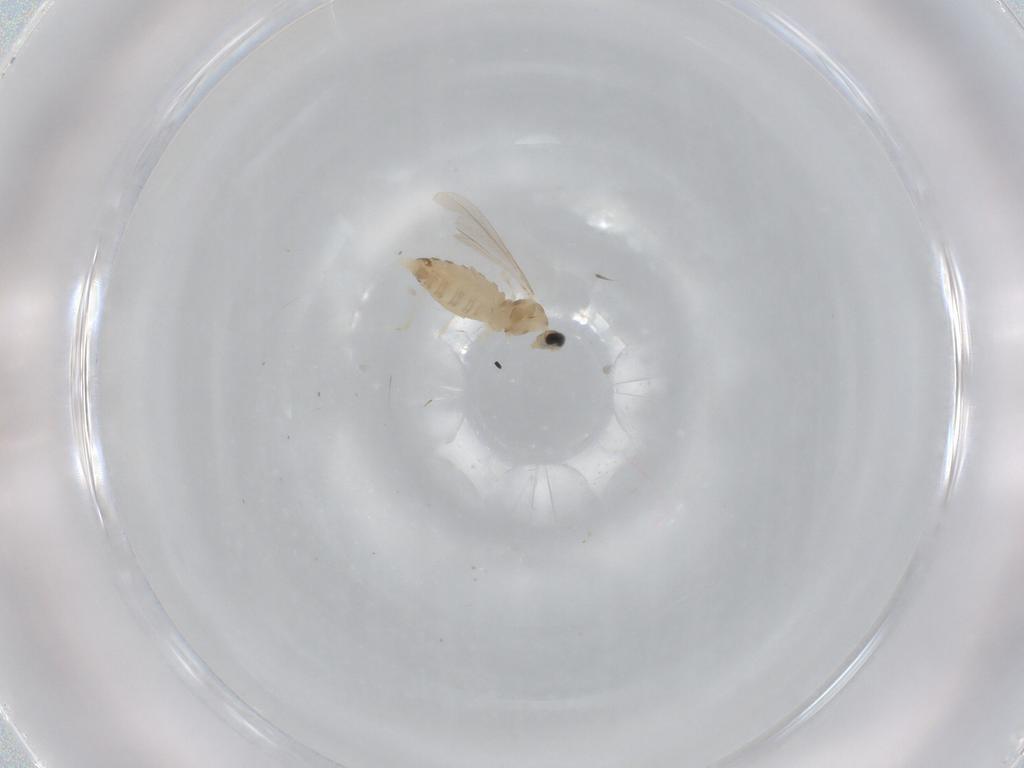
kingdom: Animalia
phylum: Arthropoda
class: Insecta
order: Diptera
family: Cecidomyiidae
